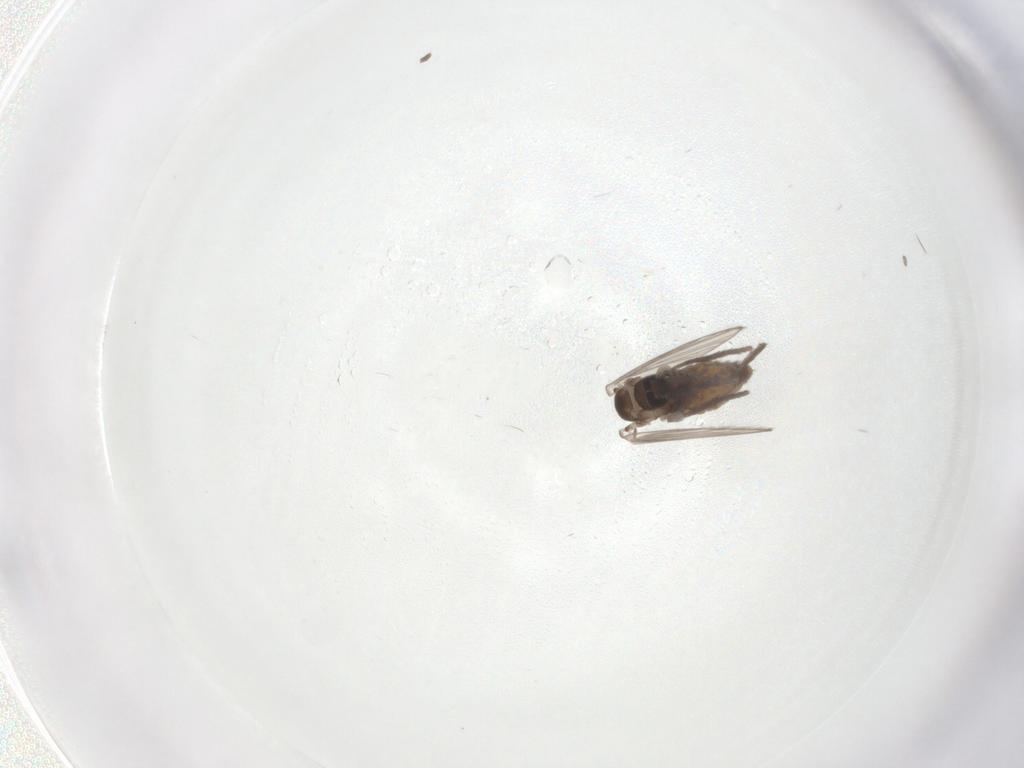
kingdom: Animalia
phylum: Arthropoda
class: Insecta
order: Diptera
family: Psychodidae
